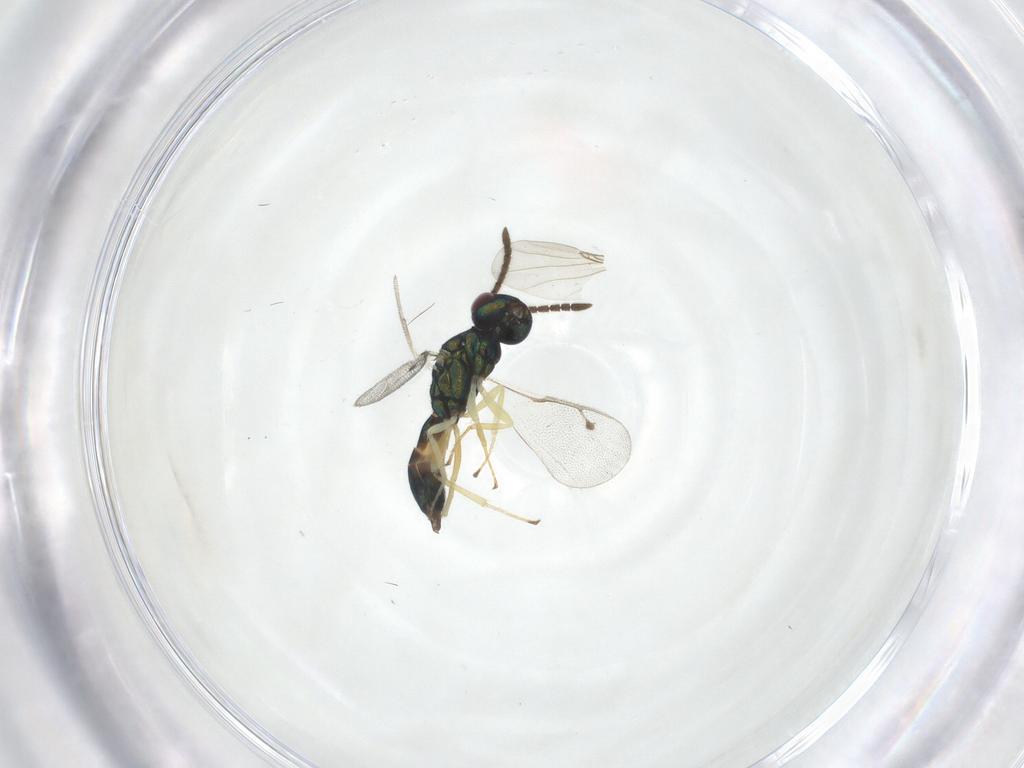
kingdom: Animalia
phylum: Arthropoda
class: Insecta
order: Hymenoptera
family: Pteromalidae
